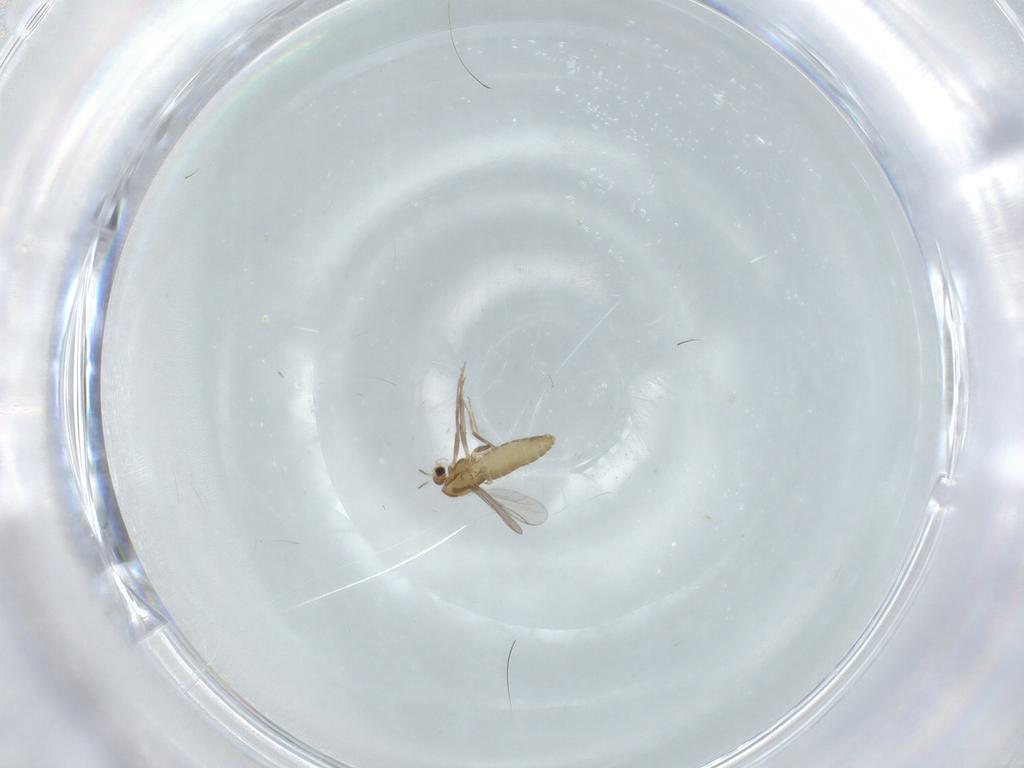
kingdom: Animalia
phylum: Arthropoda
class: Insecta
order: Diptera
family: Chironomidae
